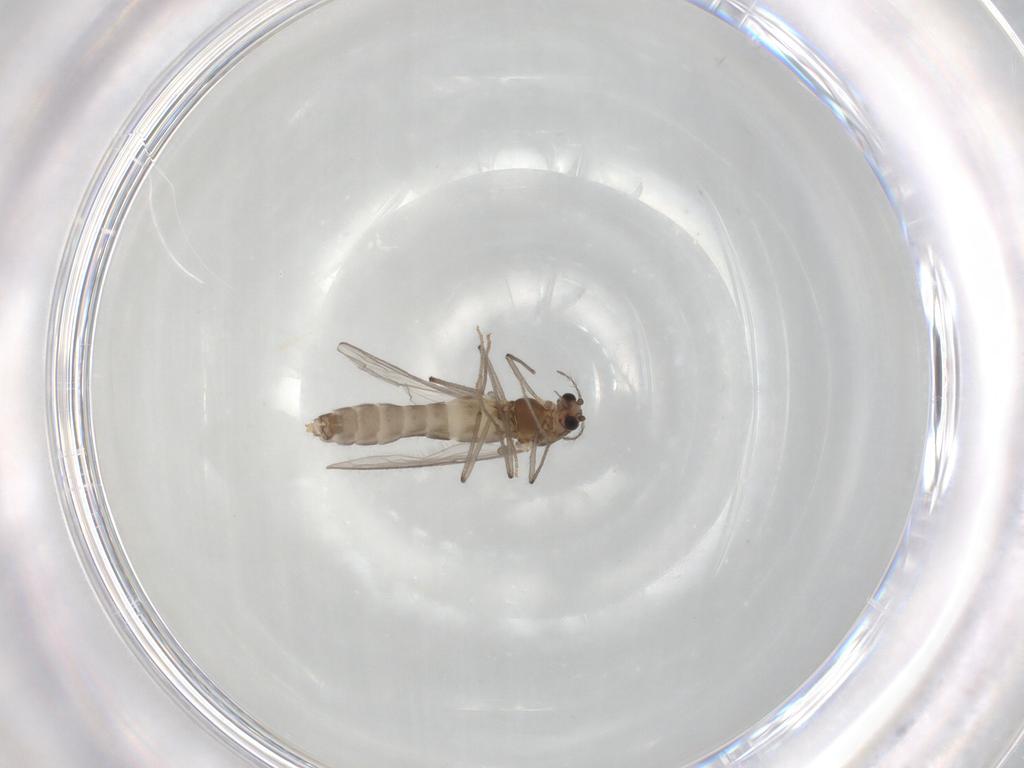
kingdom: Animalia
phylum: Arthropoda
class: Insecta
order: Diptera
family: Chironomidae
